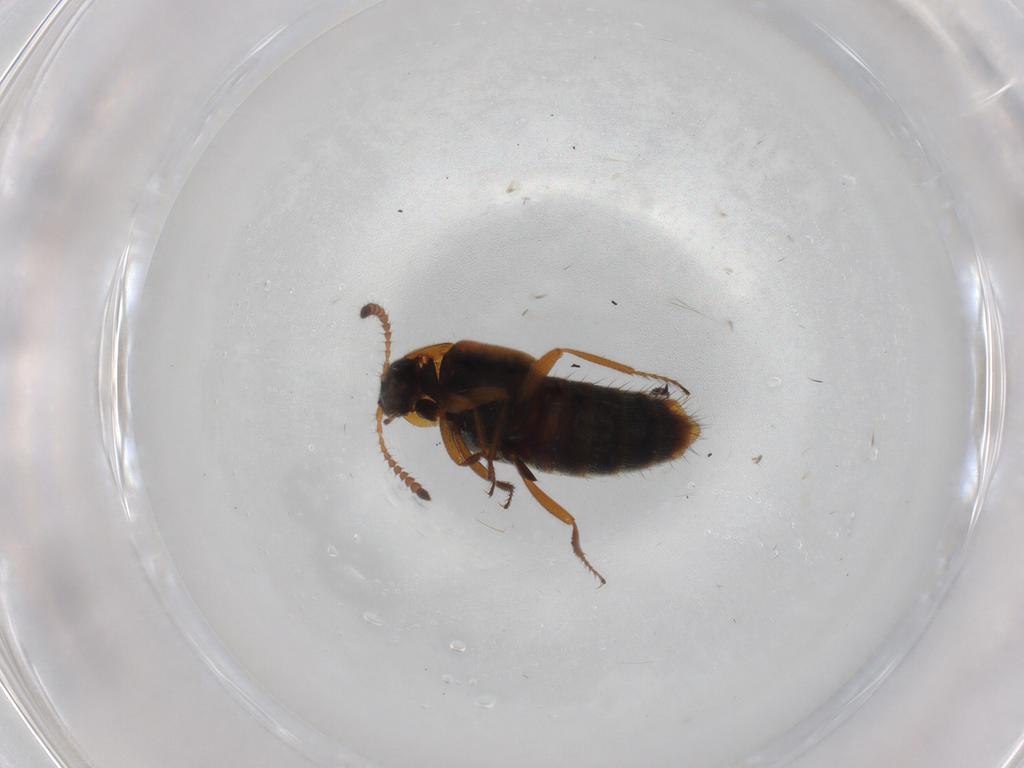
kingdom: Animalia
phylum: Arthropoda
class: Insecta
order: Coleoptera
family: Staphylinidae
